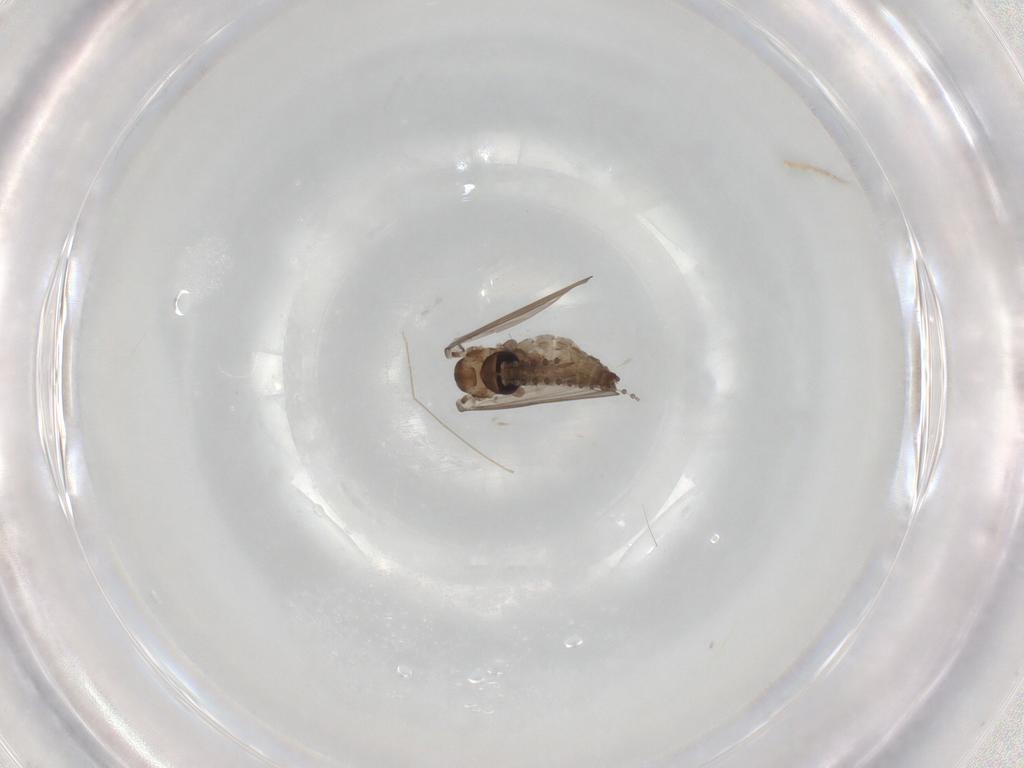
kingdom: Animalia
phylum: Arthropoda
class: Insecta
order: Diptera
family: Psychodidae
